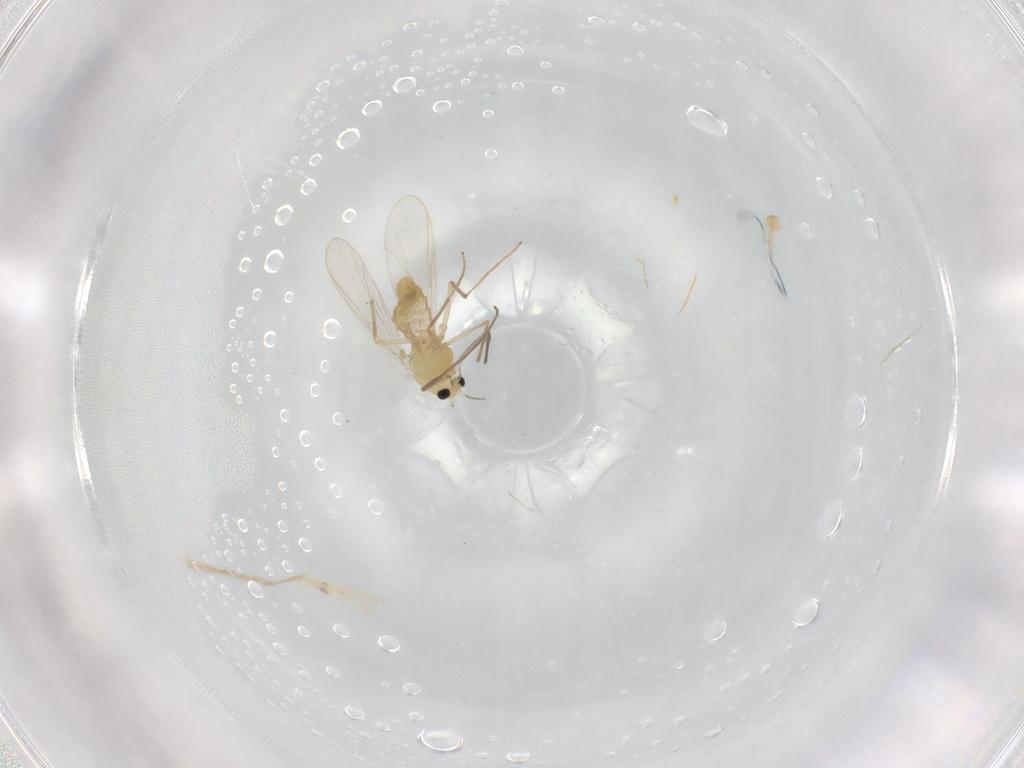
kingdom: Animalia
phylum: Arthropoda
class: Insecta
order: Diptera
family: Chironomidae
